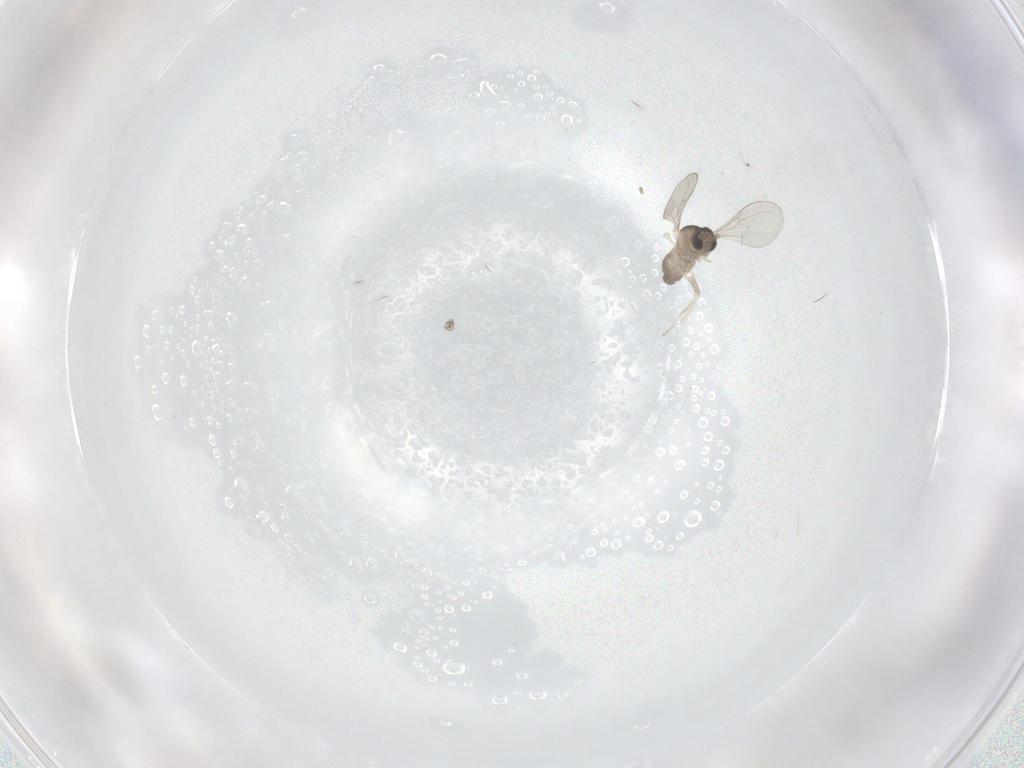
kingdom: Animalia
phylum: Arthropoda
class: Insecta
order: Diptera
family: Cecidomyiidae
